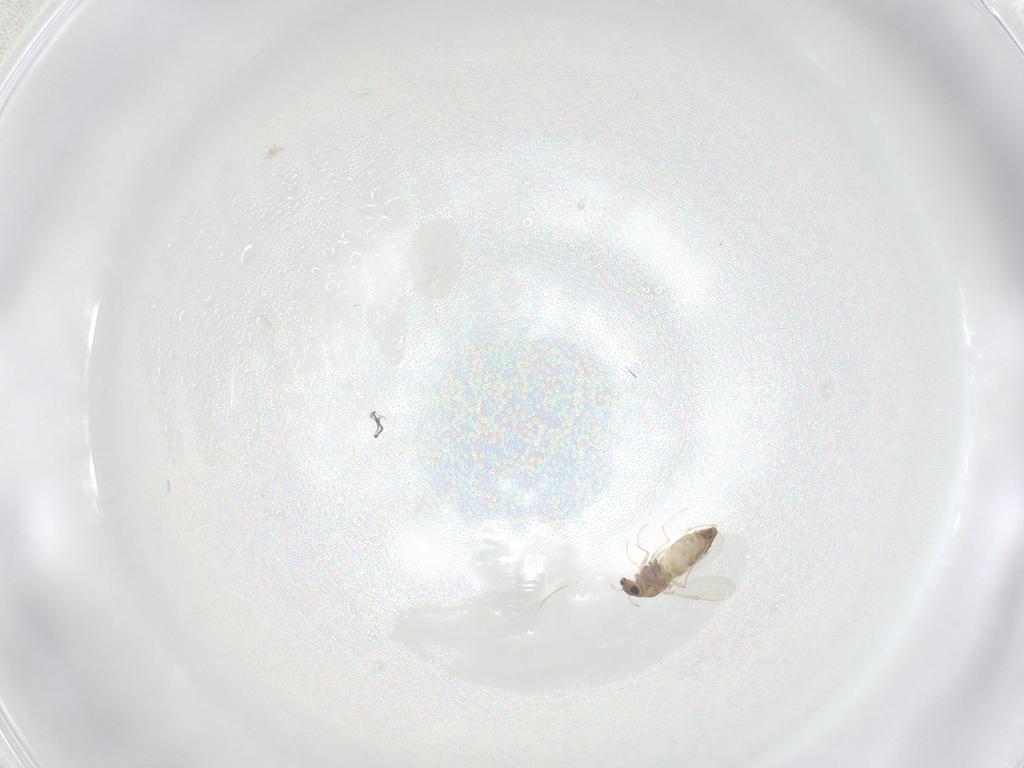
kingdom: Animalia
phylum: Arthropoda
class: Insecta
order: Diptera
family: Chironomidae
